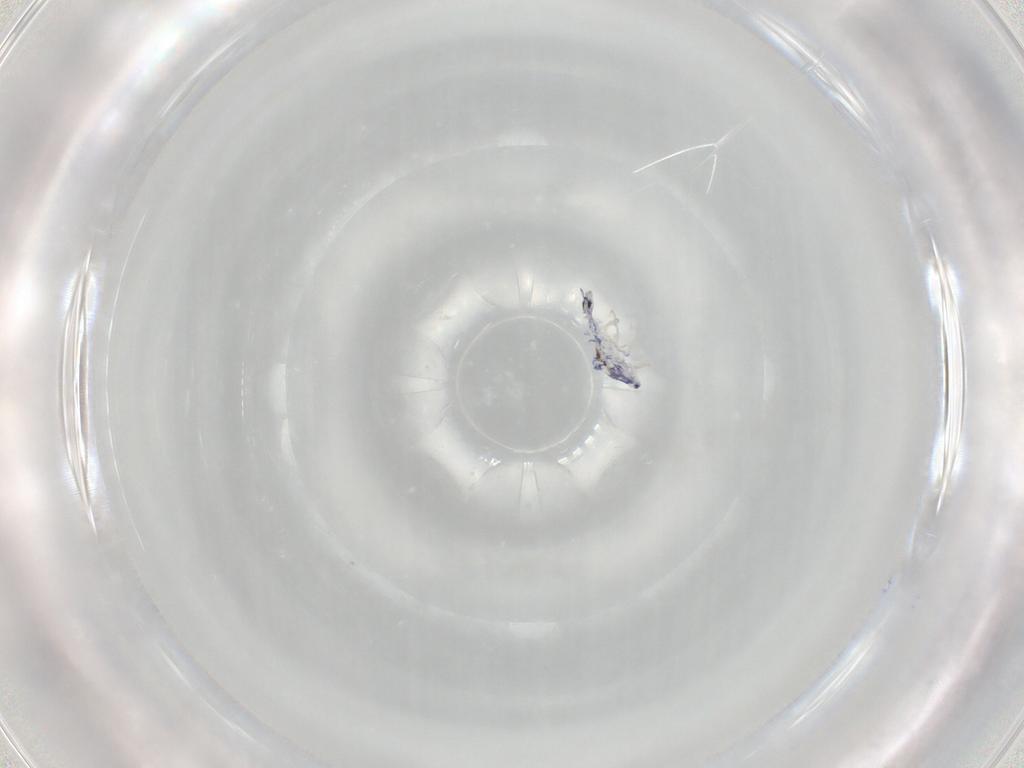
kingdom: Animalia
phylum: Arthropoda
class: Collembola
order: Entomobryomorpha
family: Entomobryidae
